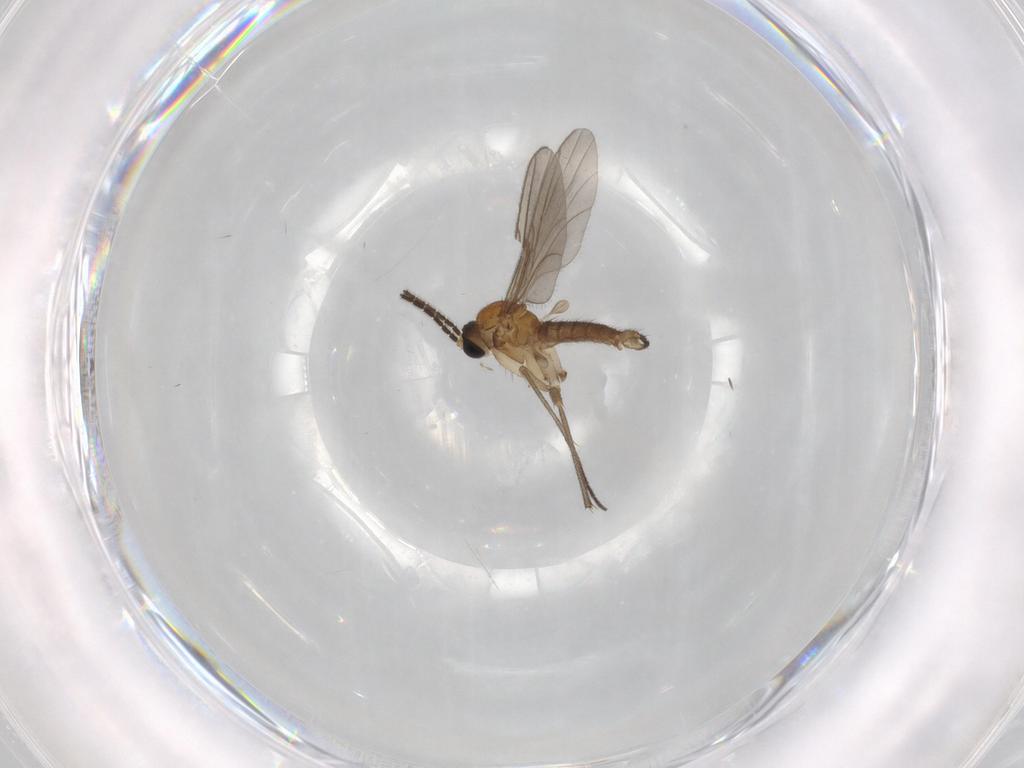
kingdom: Animalia
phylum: Arthropoda
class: Insecta
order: Diptera
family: Sciaridae
